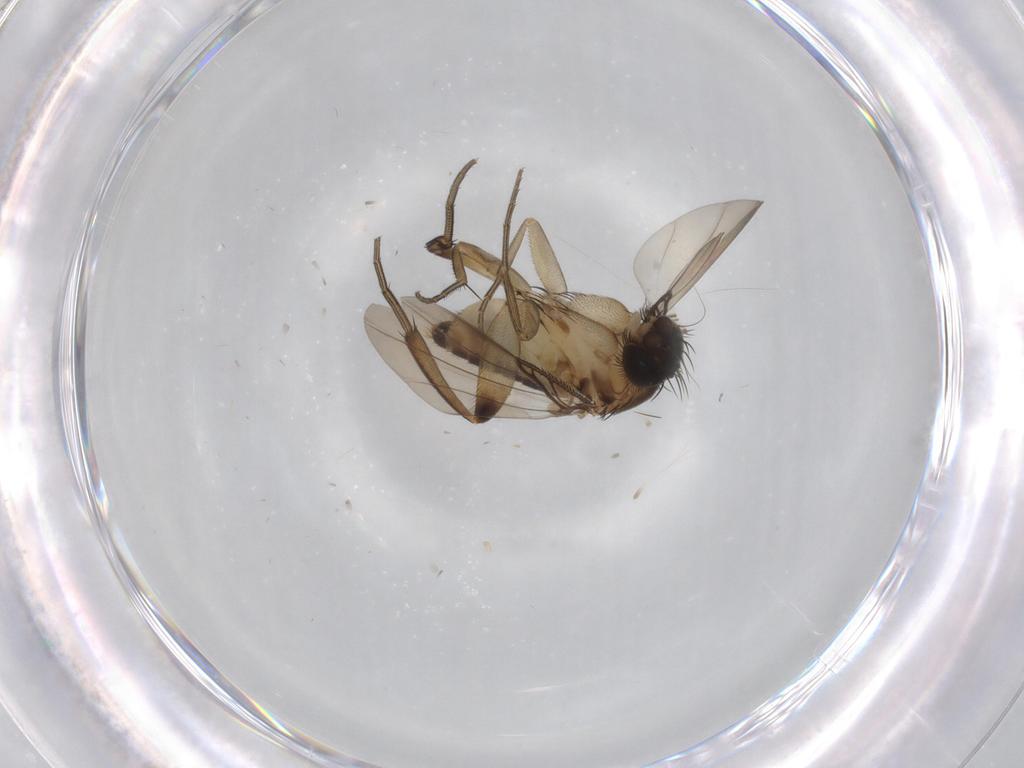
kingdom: Animalia
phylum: Arthropoda
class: Insecta
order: Diptera
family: Phoridae
